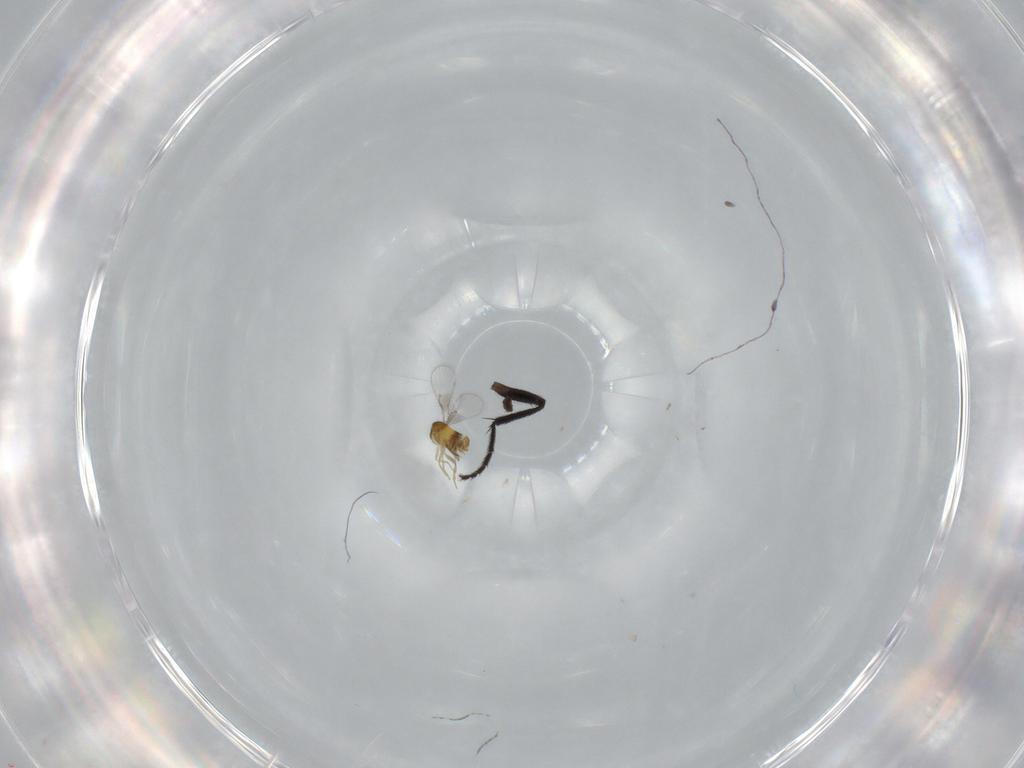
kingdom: Animalia
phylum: Arthropoda
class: Insecta
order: Hymenoptera
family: Trichogrammatidae
